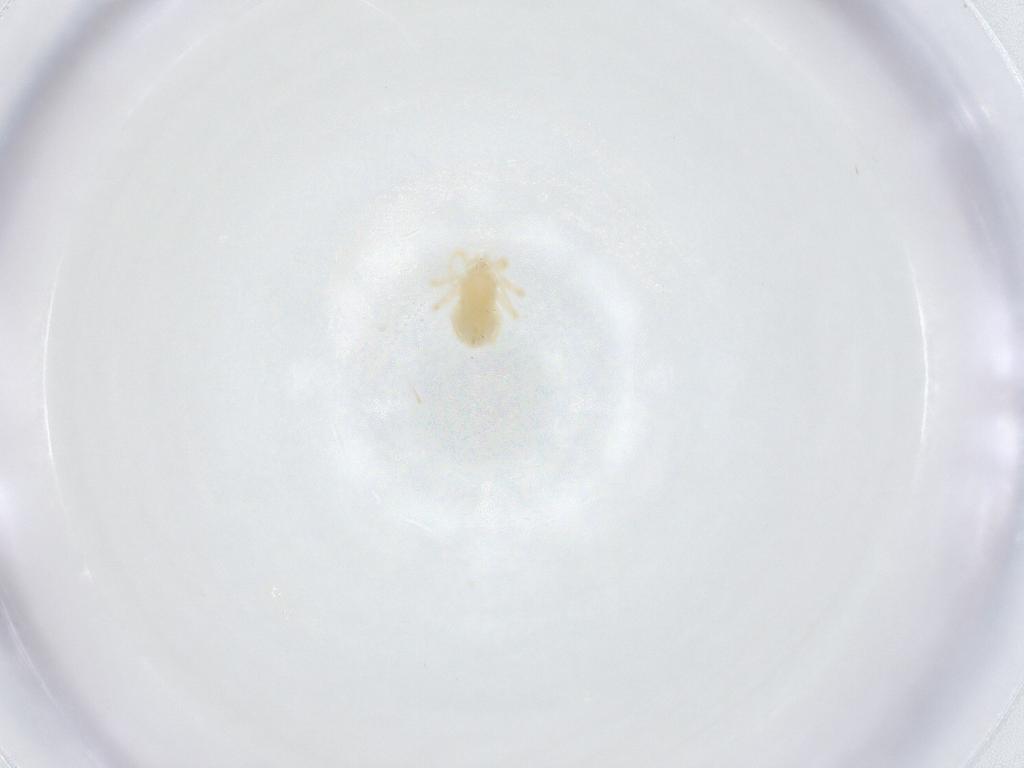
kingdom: Animalia
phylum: Arthropoda
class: Arachnida
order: Trombidiformes
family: Anystidae
